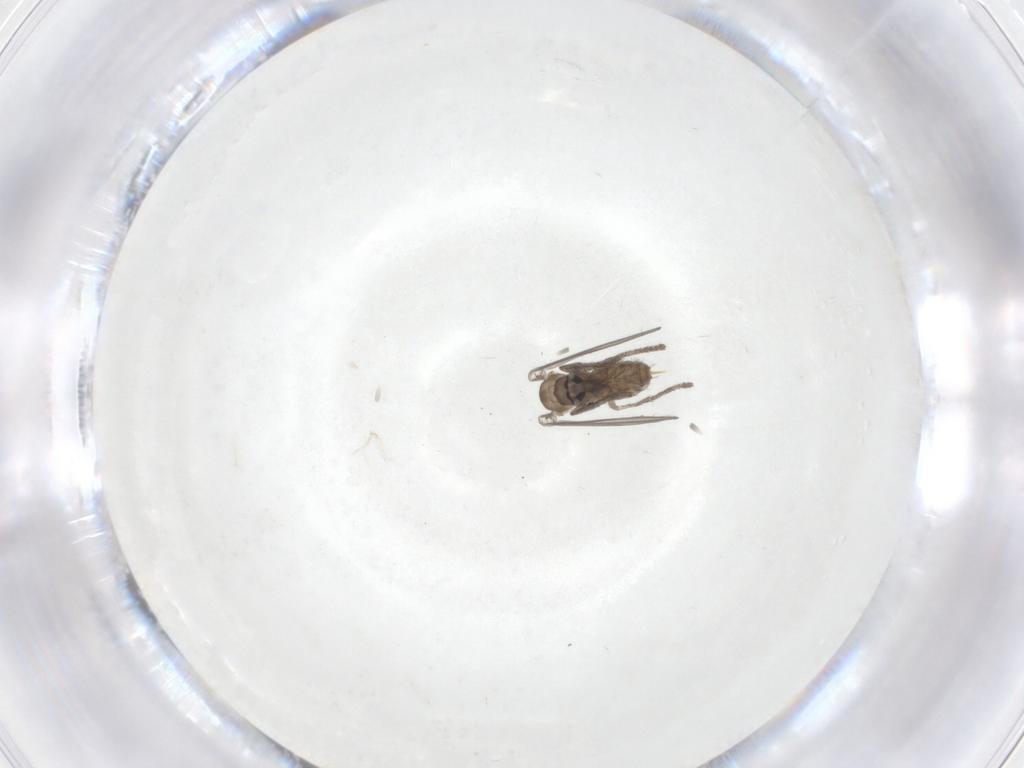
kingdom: Animalia
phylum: Arthropoda
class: Insecta
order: Diptera
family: Psychodidae
